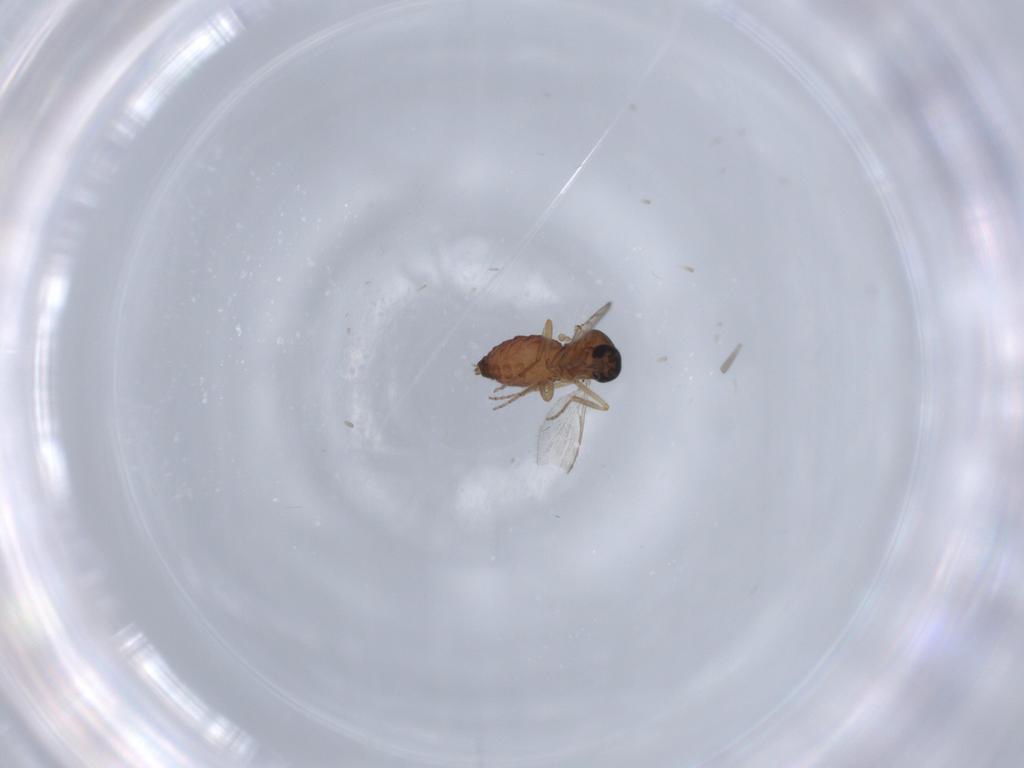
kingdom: Animalia
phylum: Arthropoda
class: Insecta
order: Diptera
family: Ceratopogonidae
